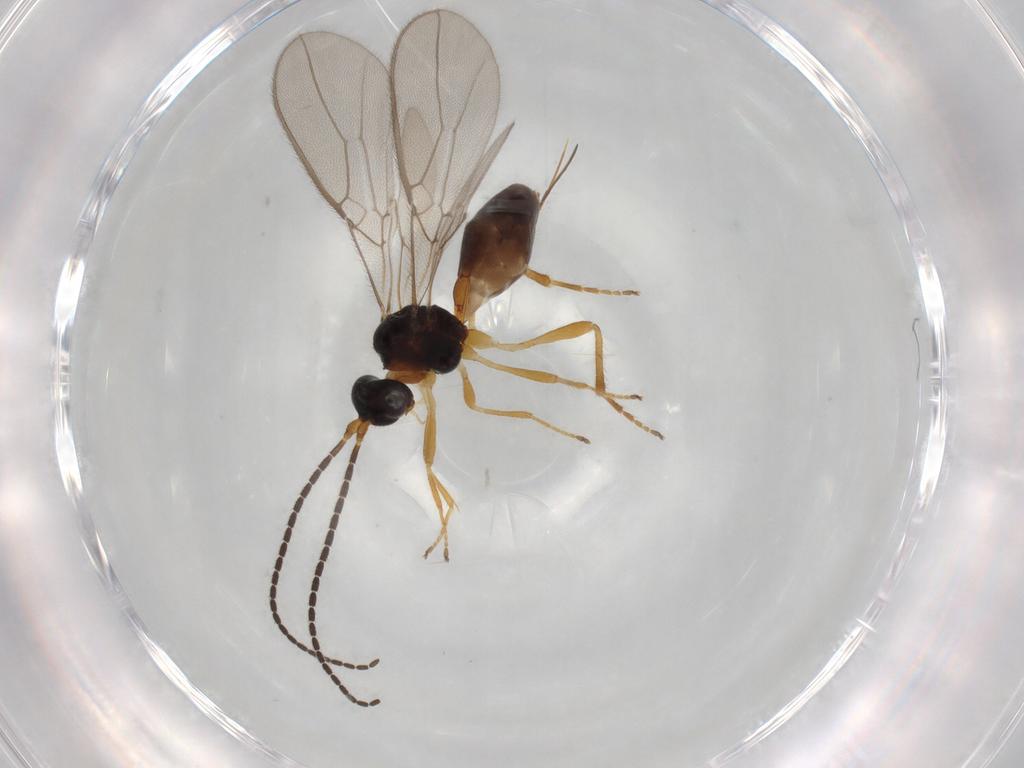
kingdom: Animalia
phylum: Arthropoda
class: Insecta
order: Hymenoptera
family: Braconidae
